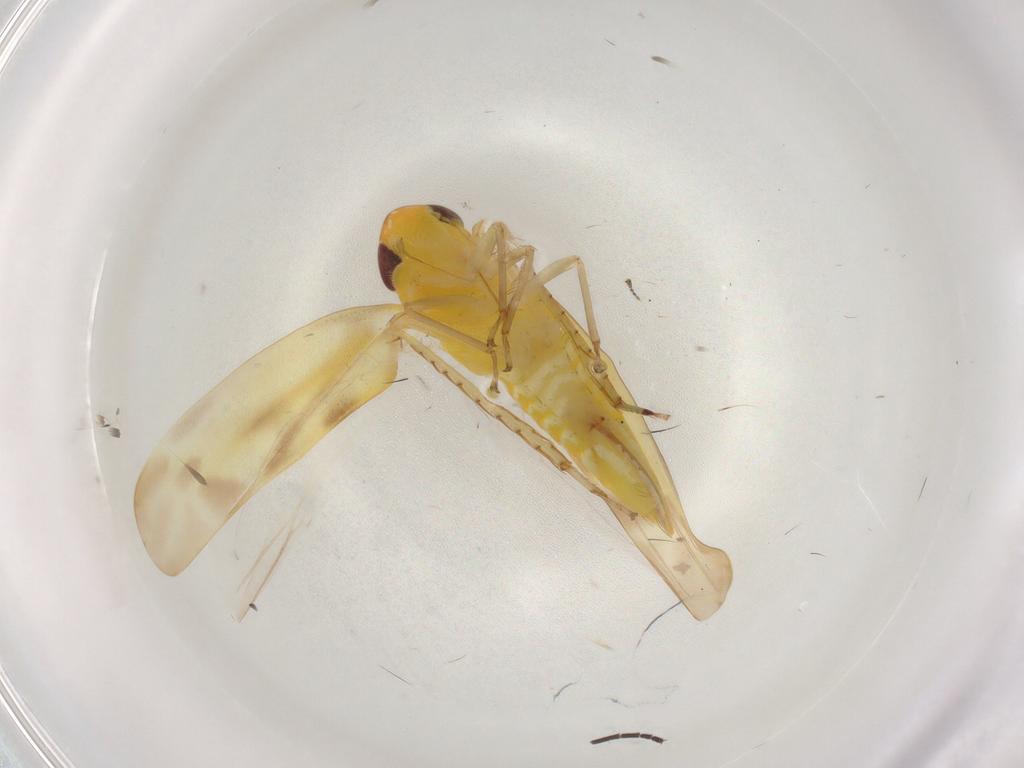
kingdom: Animalia
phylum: Arthropoda
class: Insecta
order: Hemiptera
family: Cicadellidae
